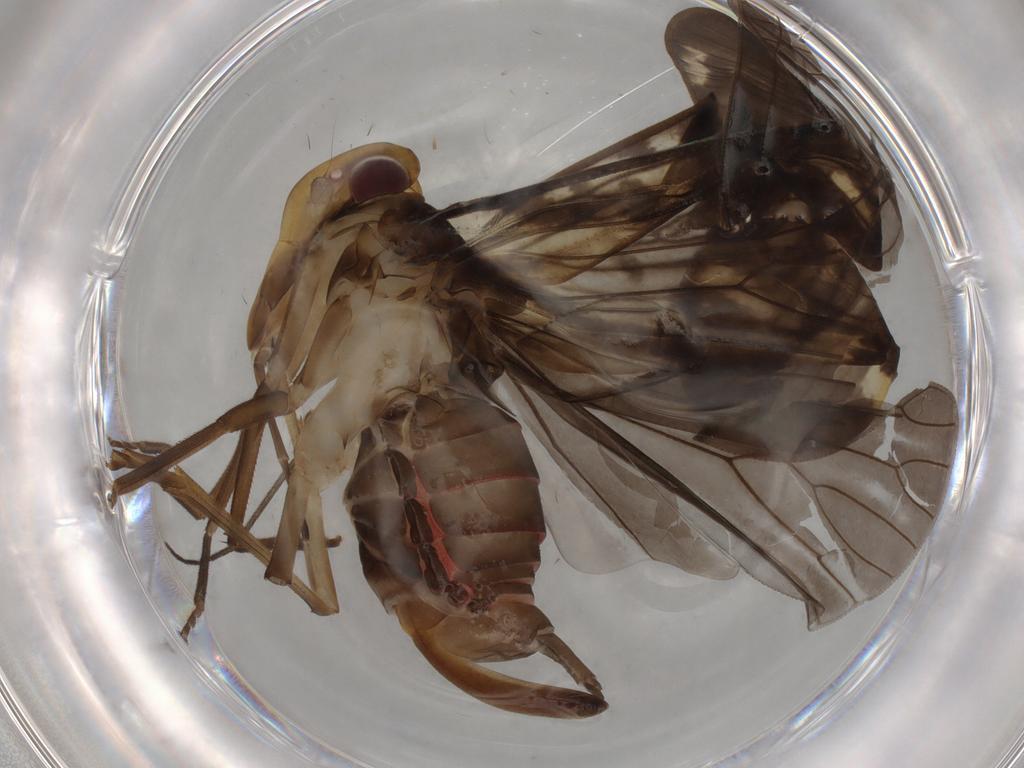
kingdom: Animalia
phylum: Arthropoda
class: Insecta
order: Hemiptera
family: Cixiidae
